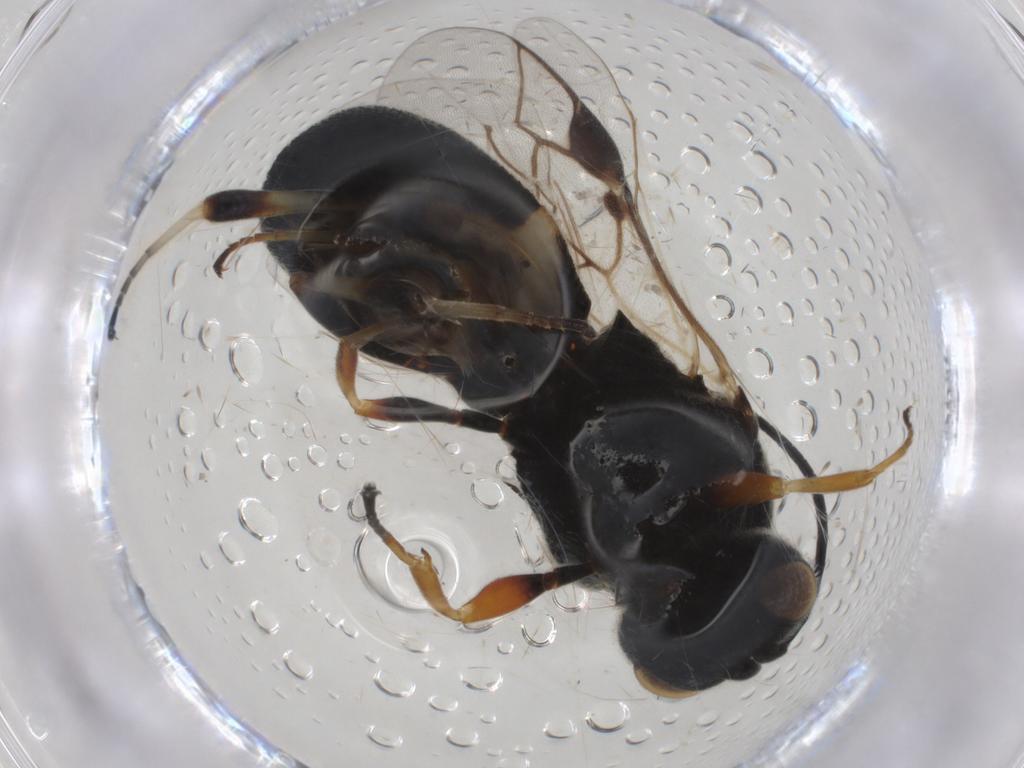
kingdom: Animalia
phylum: Arthropoda
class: Insecta
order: Hymenoptera
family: Braconidae
